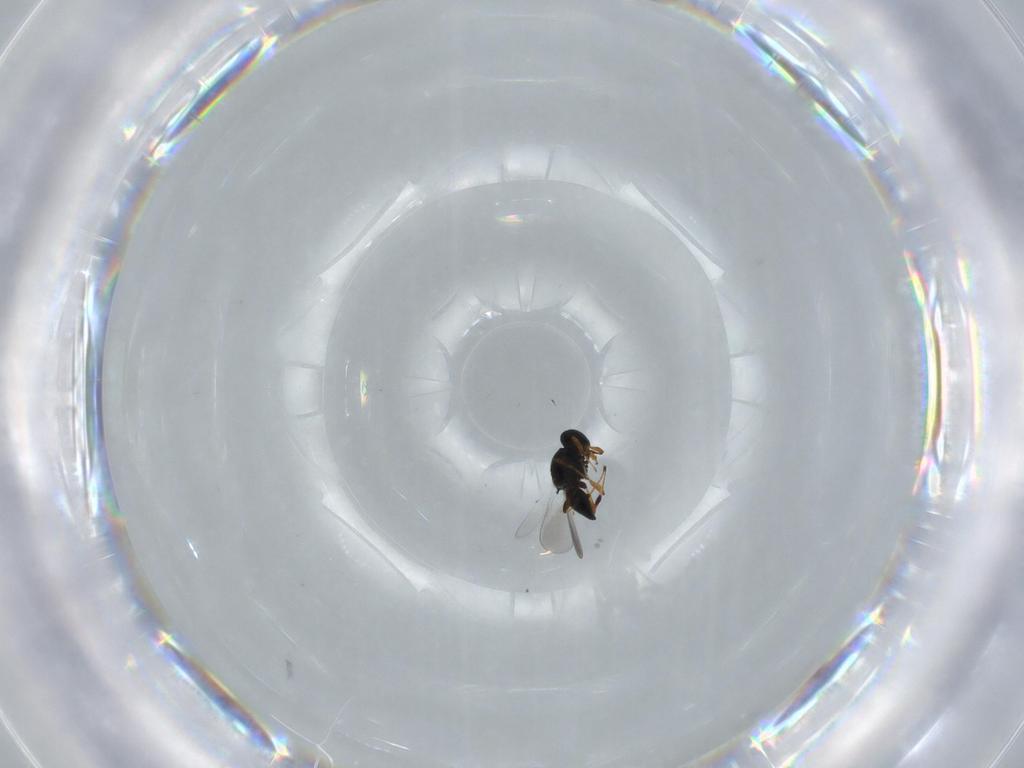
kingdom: Animalia
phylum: Arthropoda
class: Insecta
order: Hymenoptera
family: Platygastridae
